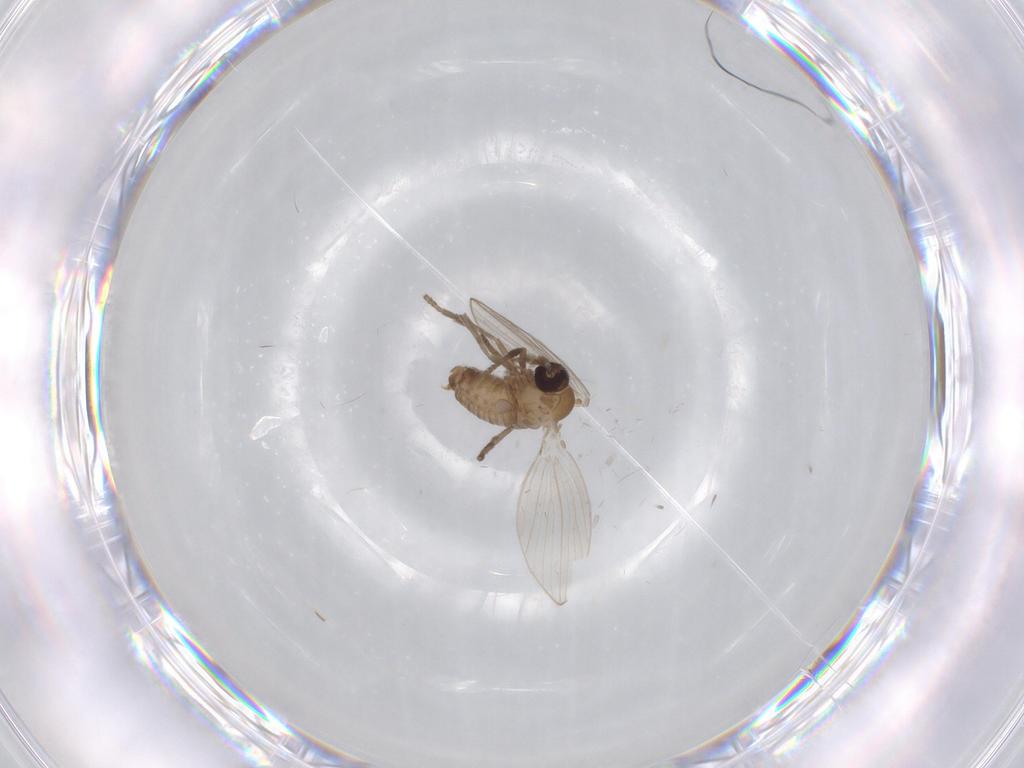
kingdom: Animalia
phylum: Arthropoda
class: Insecta
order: Diptera
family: Psychodidae
